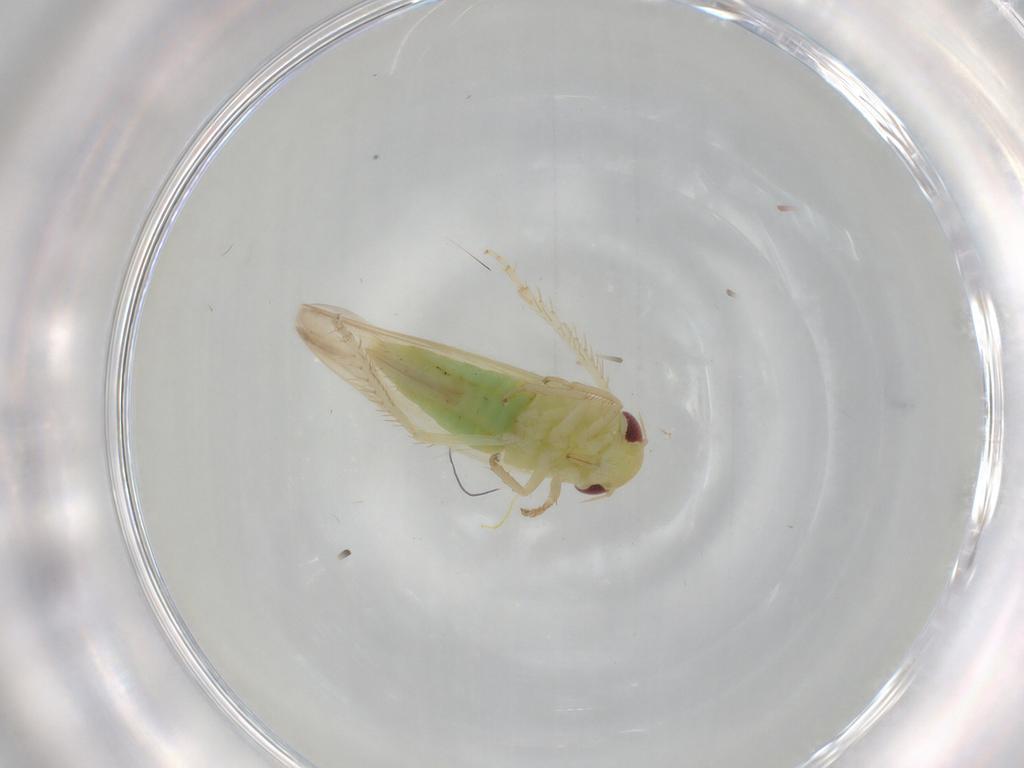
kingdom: Animalia
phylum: Arthropoda
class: Insecta
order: Hemiptera
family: Cicadellidae
